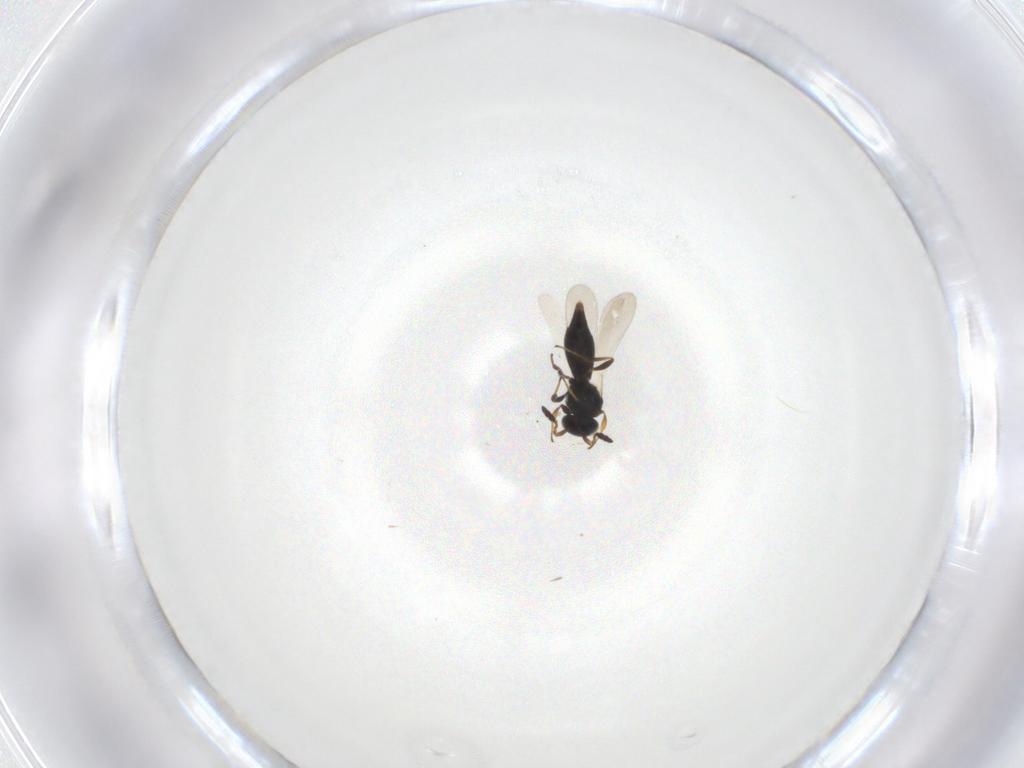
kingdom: Animalia
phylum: Arthropoda
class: Insecta
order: Hymenoptera
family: Platygastridae
